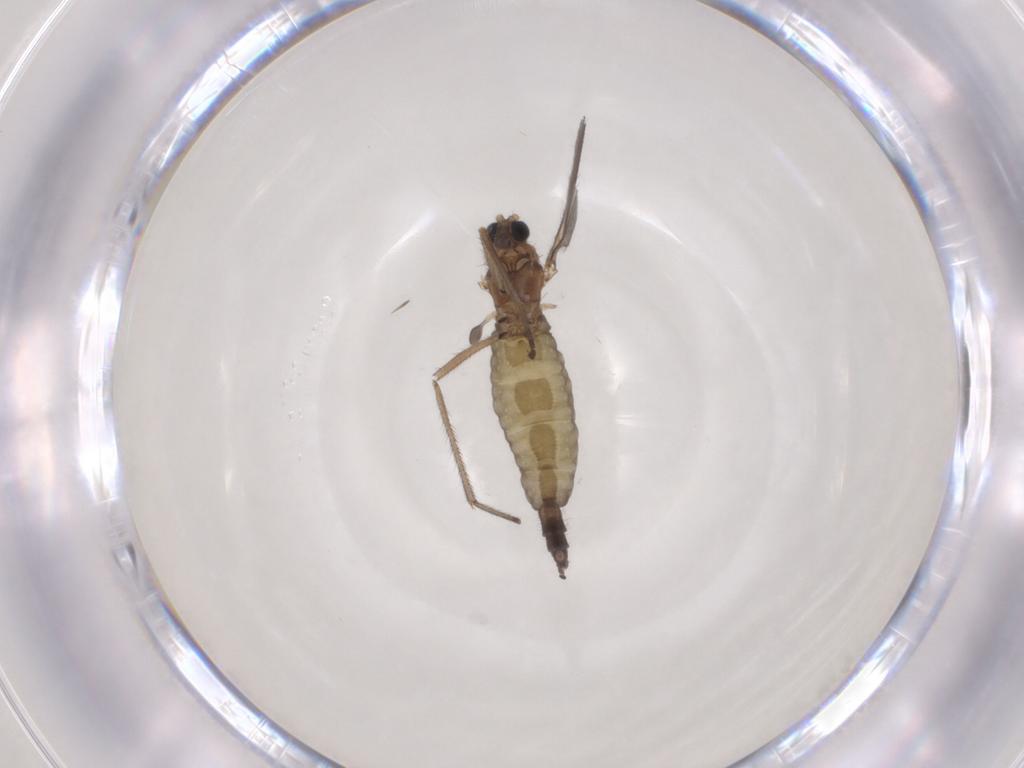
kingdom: Animalia
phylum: Arthropoda
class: Insecta
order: Diptera
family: Sciaridae
